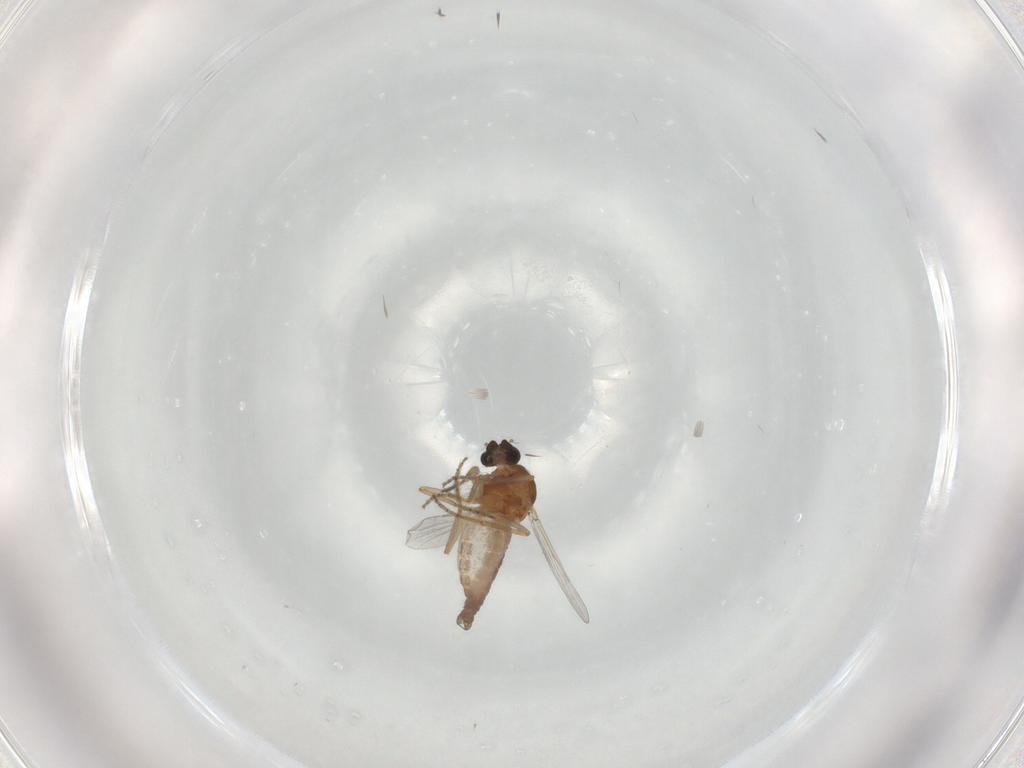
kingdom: Animalia
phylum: Arthropoda
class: Insecta
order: Diptera
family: Ceratopogonidae
